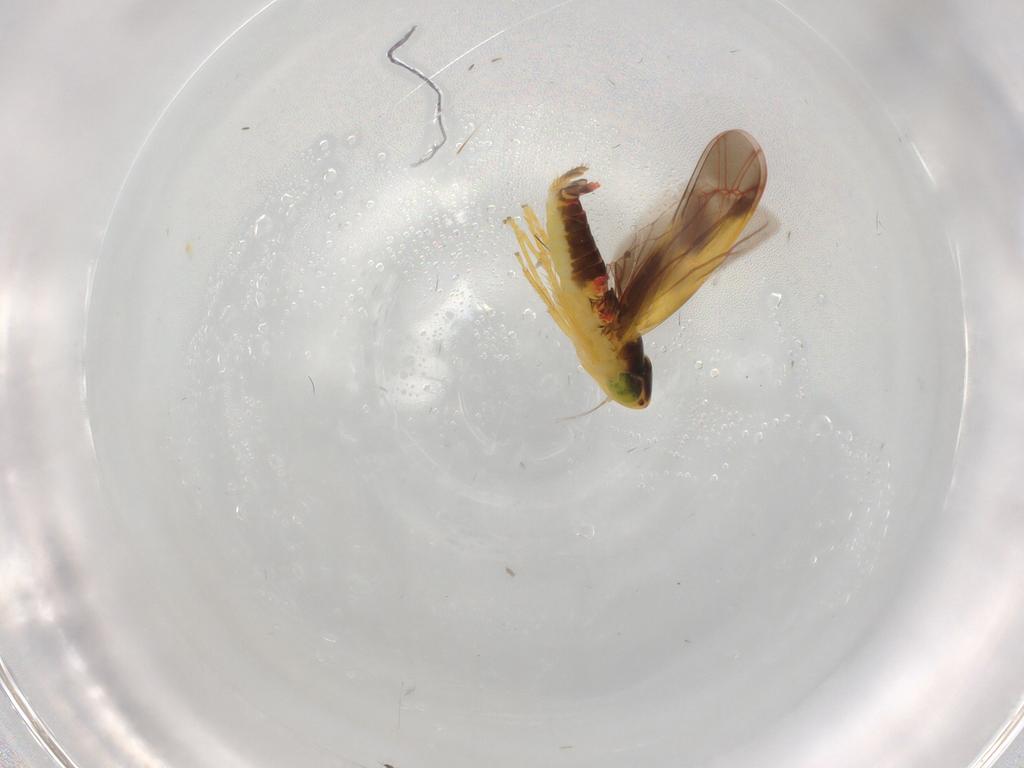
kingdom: Animalia
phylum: Arthropoda
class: Insecta
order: Hemiptera
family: Cicadellidae
